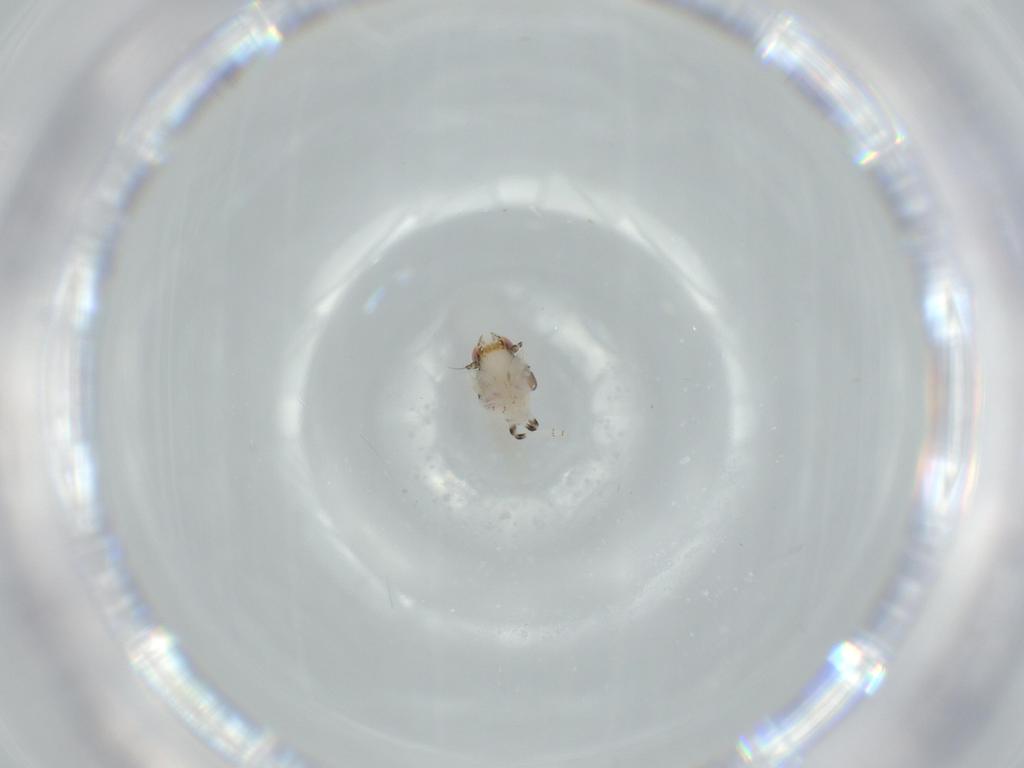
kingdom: Animalia
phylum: Arthropoda
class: Insecta
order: Hemiptera
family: Nogodinidae
